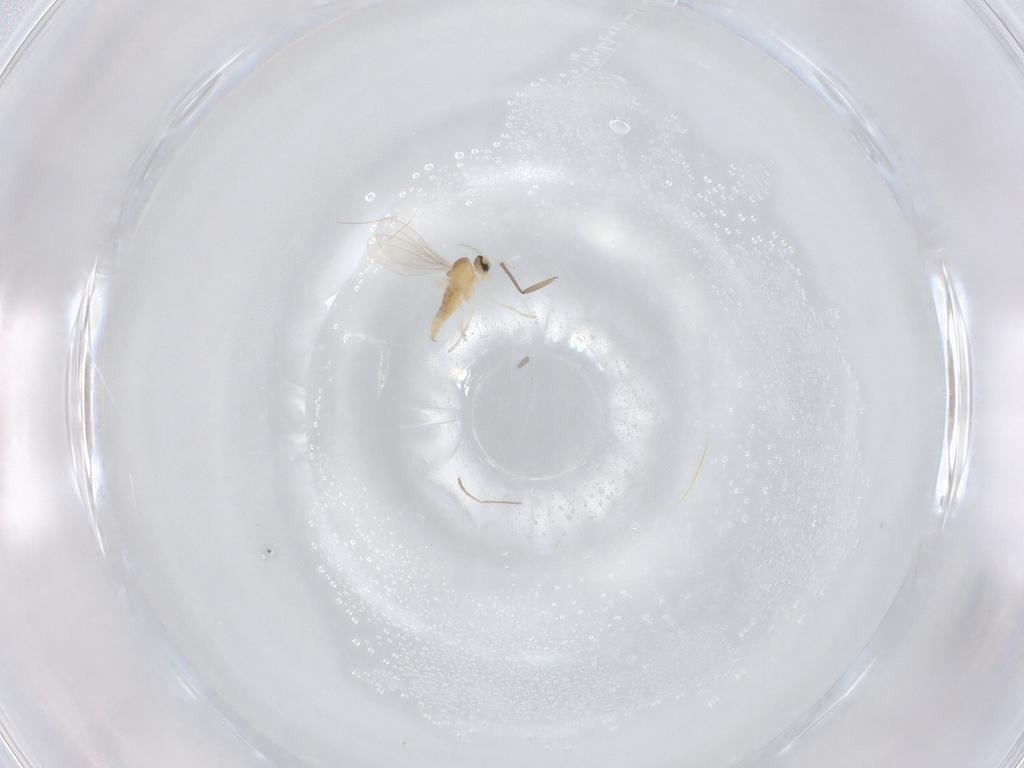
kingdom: Animalia
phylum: Arthropoda
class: Insecta
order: Diptera
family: Cecidomyiidae
